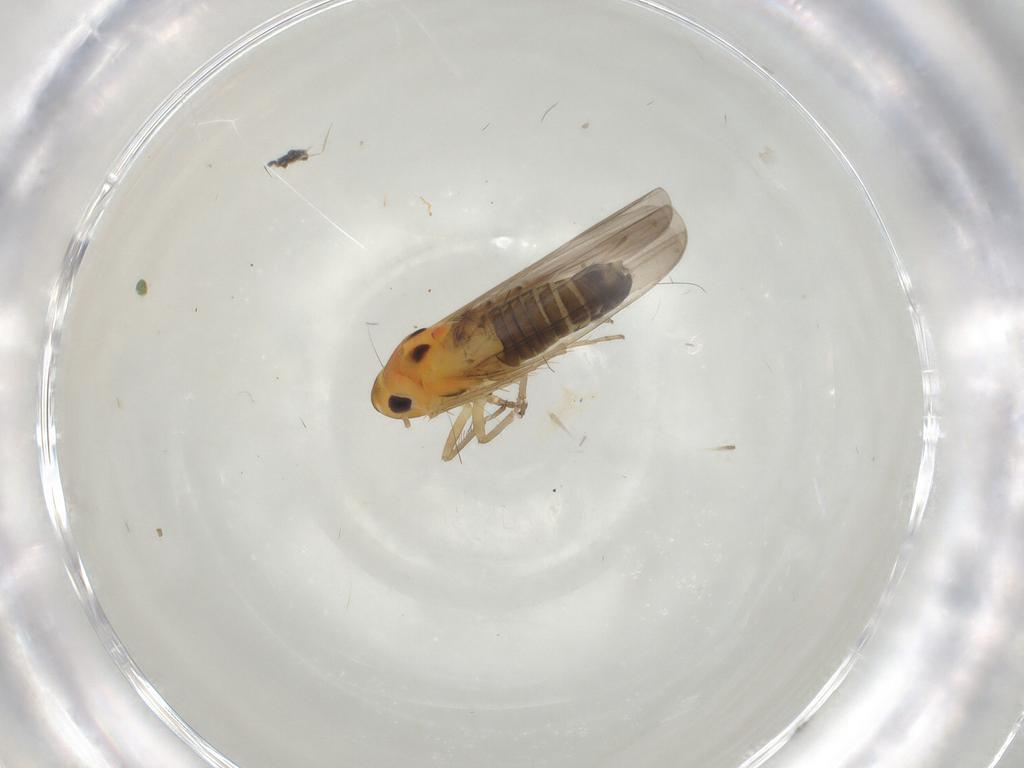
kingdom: Animalia
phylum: Arthropoda
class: Insecta
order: Hemiptera
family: Cicadellidae
